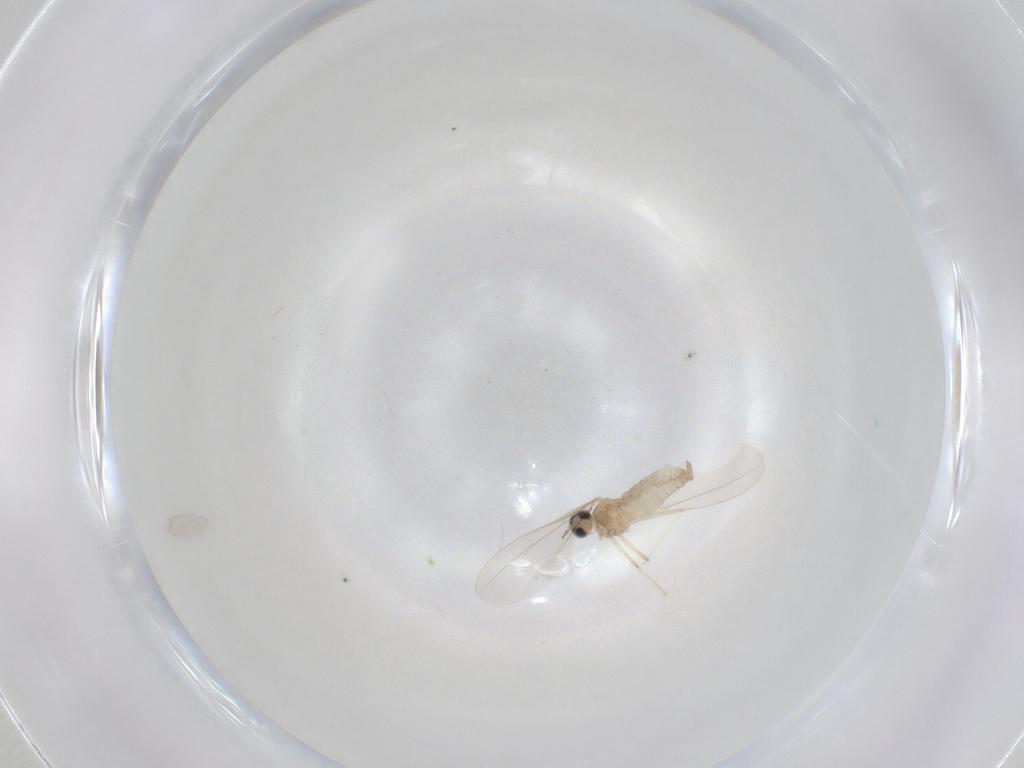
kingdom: Animalia
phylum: Arthropoda
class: Insecta
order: Diptera
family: Cecidomyiidae
